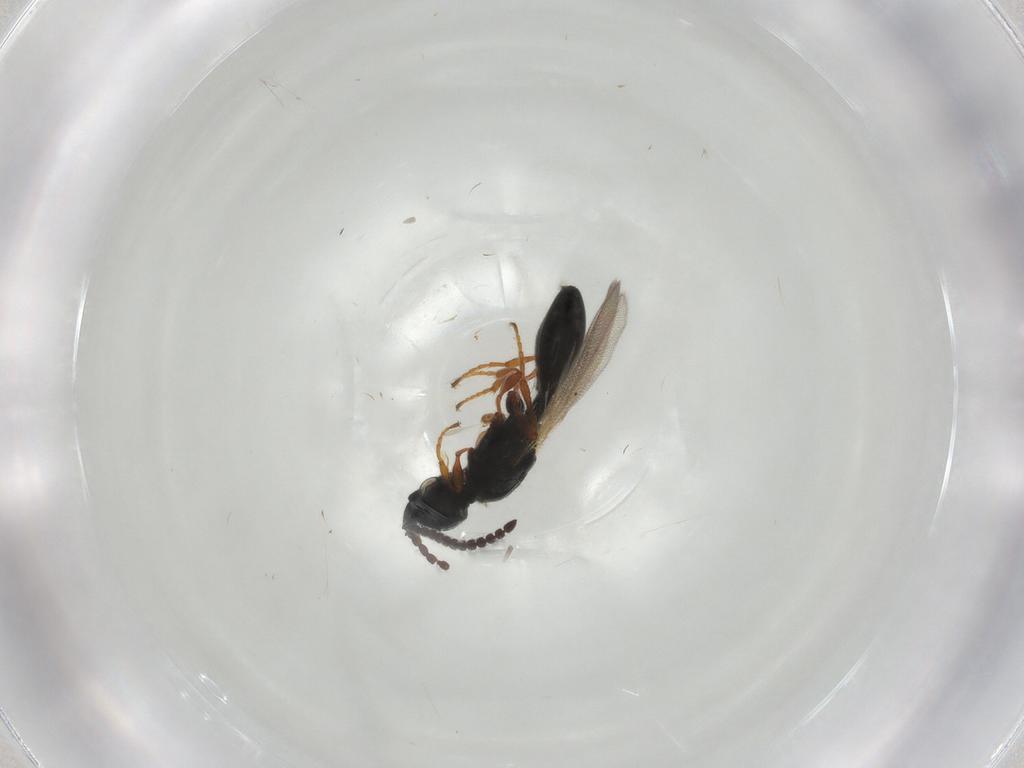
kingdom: Animalia
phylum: Arthropoda
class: Insecta
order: Hymenoptera
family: Diapriidae
